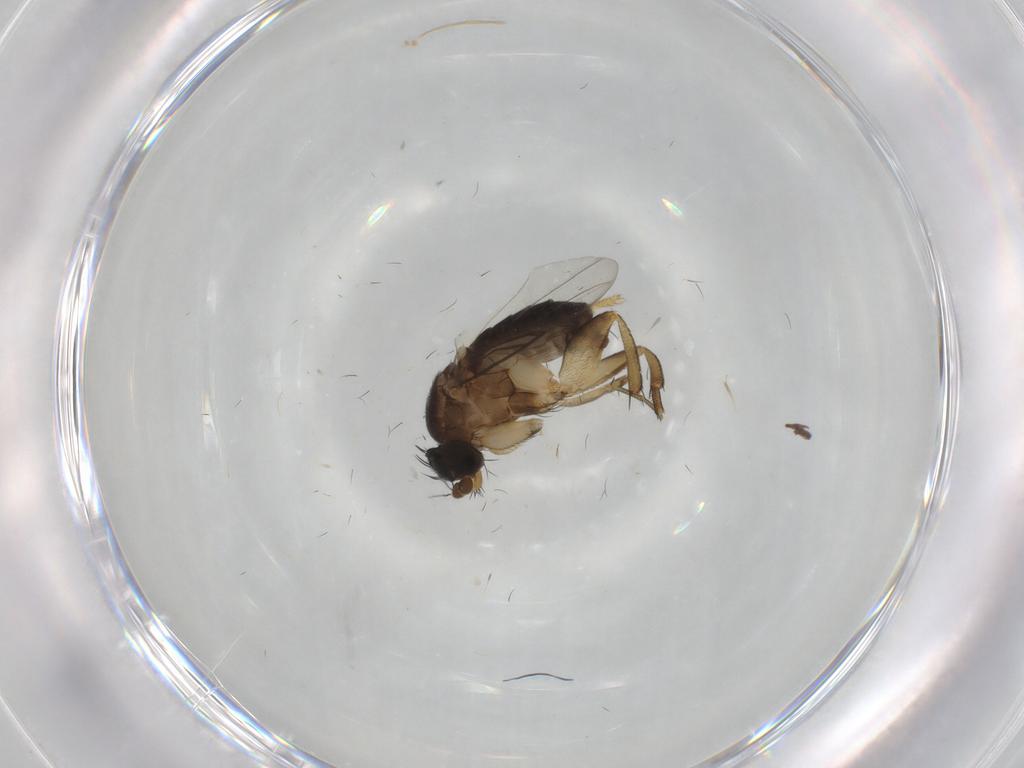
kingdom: Animalia
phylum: Arthropoda
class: Insecta
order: Diptera
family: Phoridae
